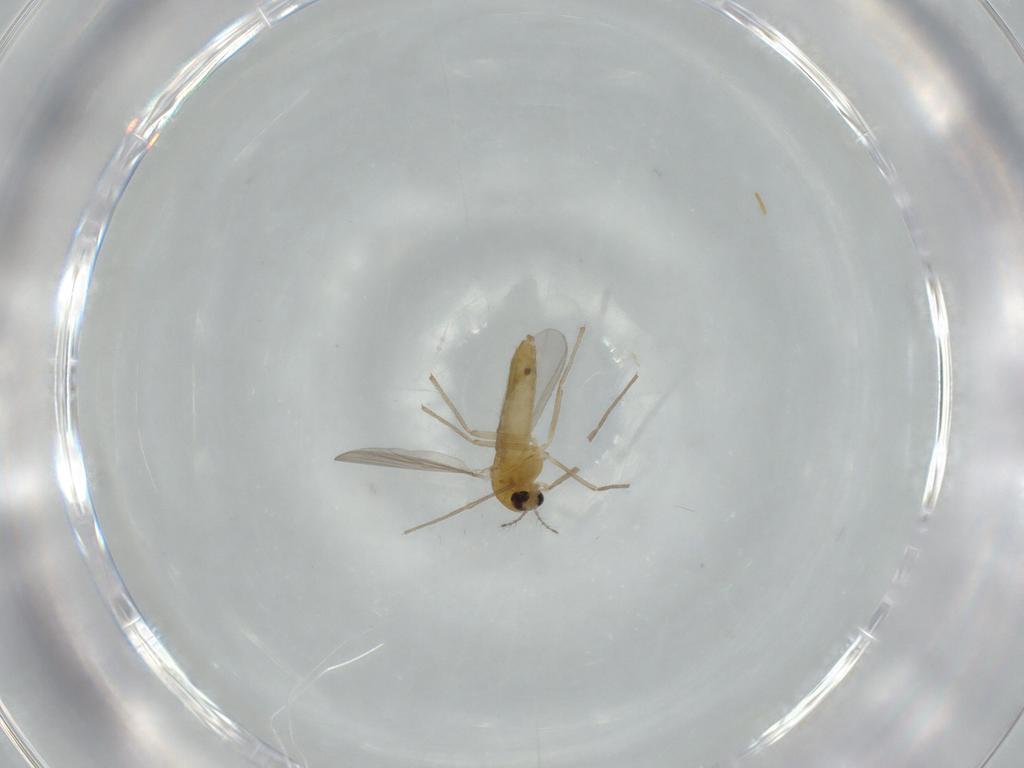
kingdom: Animalia
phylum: Arthropoda
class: Insecta
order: Diptera
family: Chironomidae
